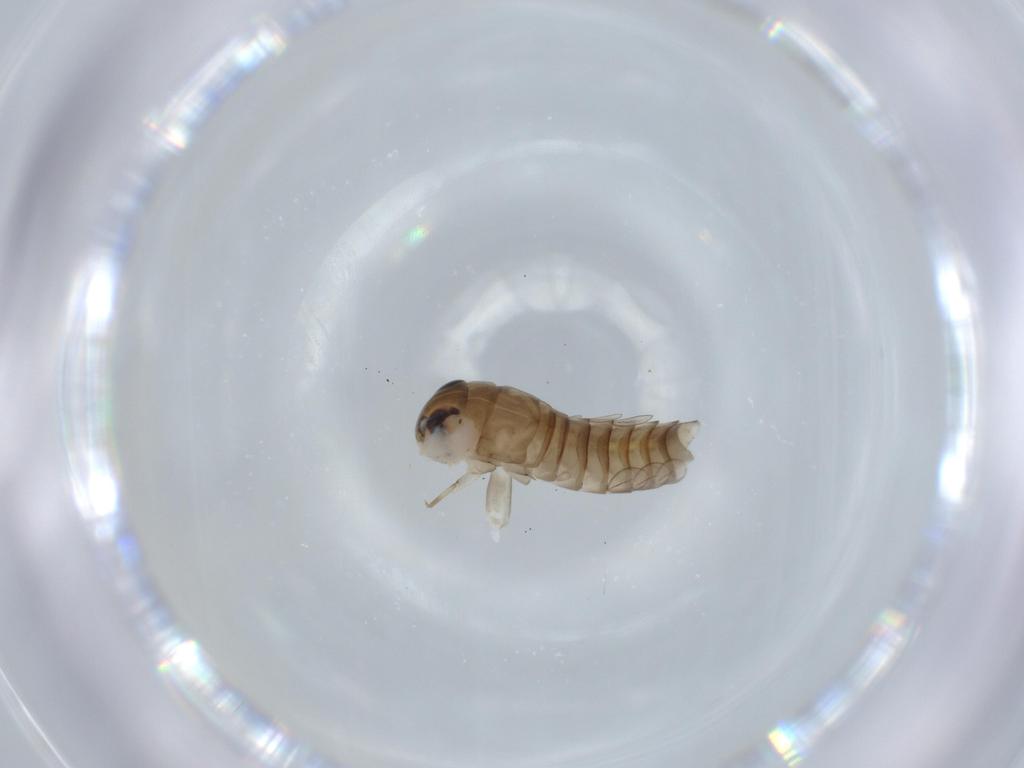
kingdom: Animalia
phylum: Arthropoda
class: Insecta
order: Ephemeroptera
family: Baetidae
